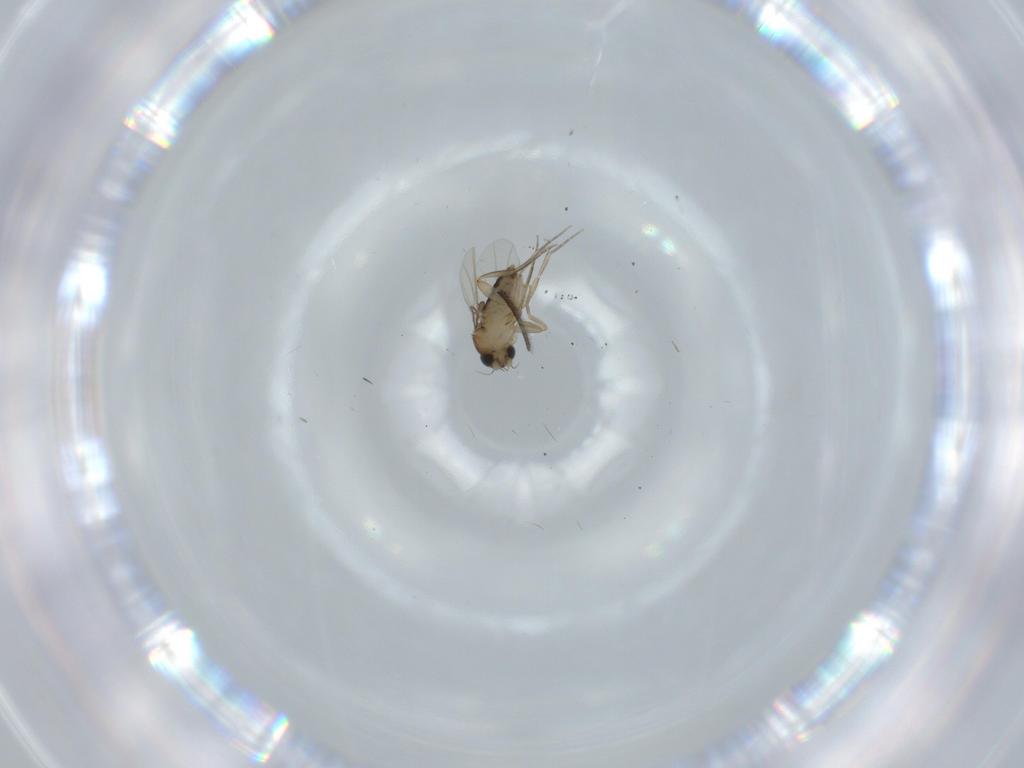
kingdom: Animalia
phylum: Arthropoda
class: Insecta
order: Diptera
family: Phoridae
